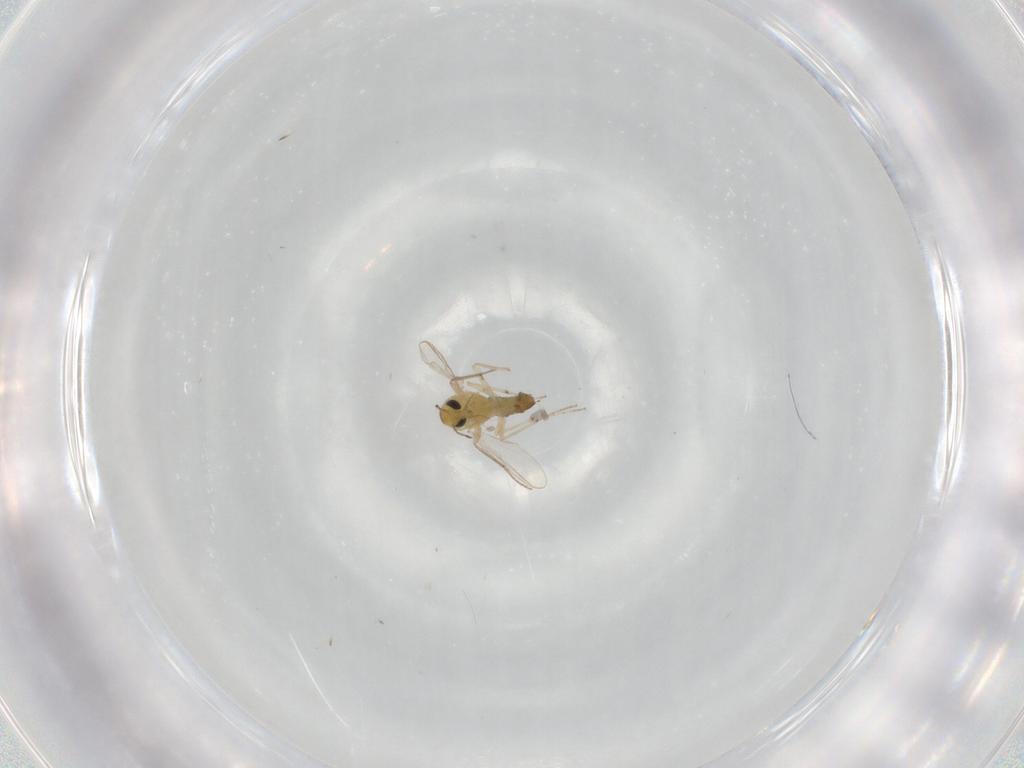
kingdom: Animalia
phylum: Arthropoda
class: Insecta
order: Diptera
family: Chironomidae
